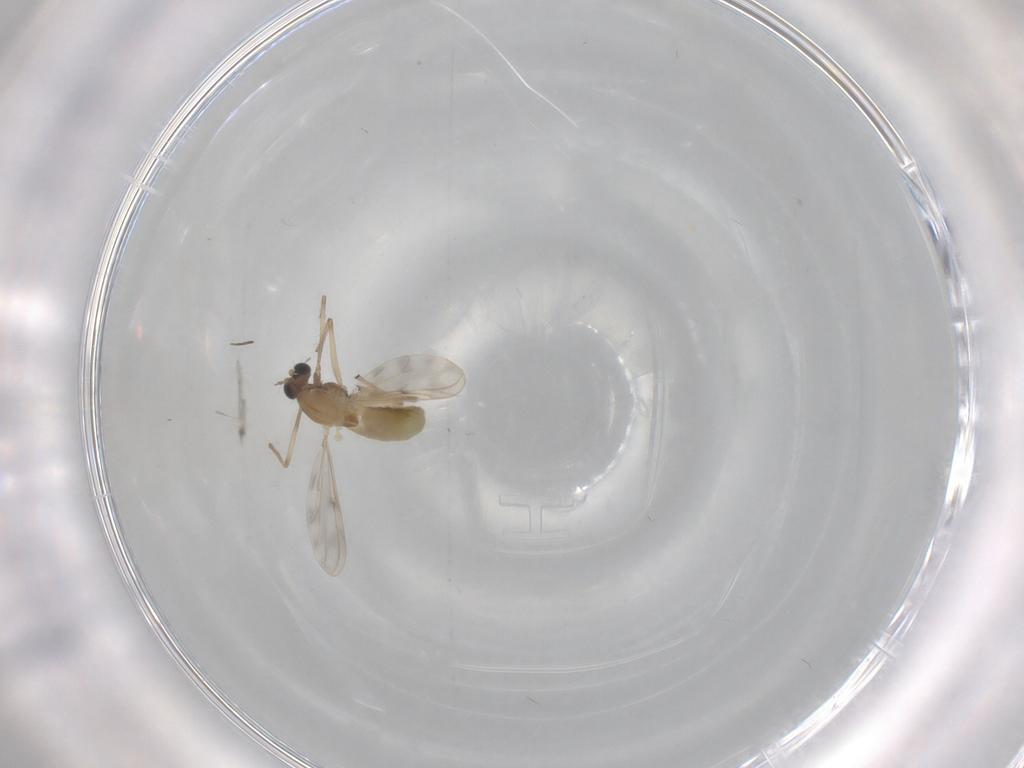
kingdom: Animalia
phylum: Arthropoda
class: Insecta
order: Diptera
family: Chironomidae
